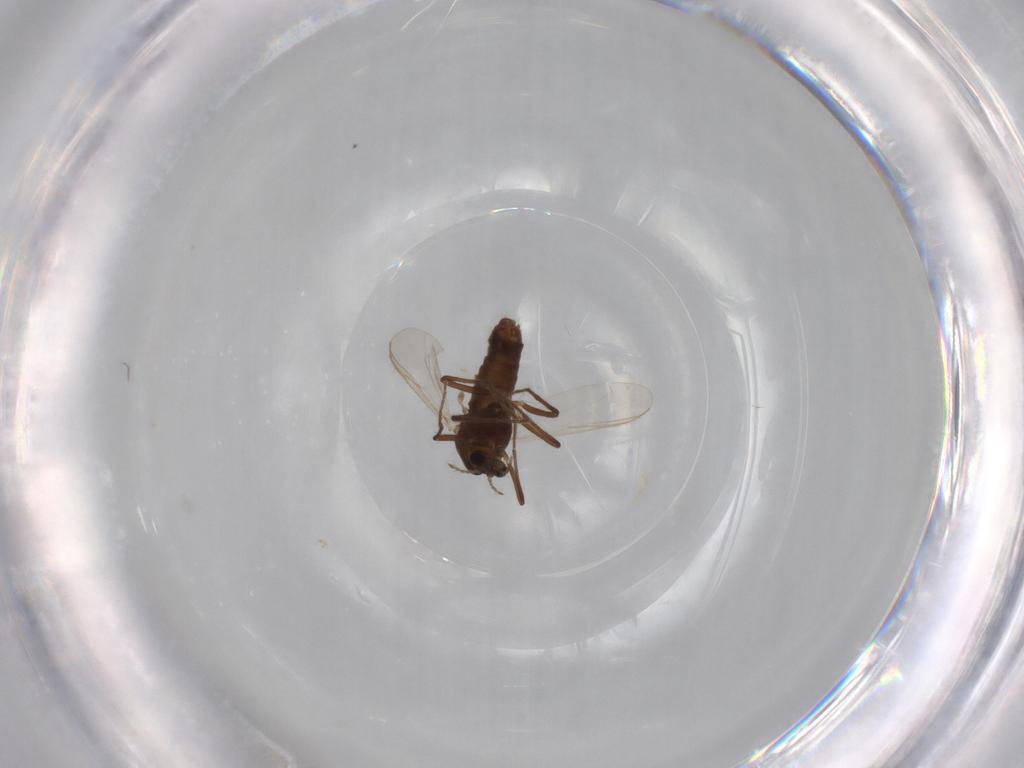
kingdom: Animalia
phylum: Arthropoda
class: Insecta
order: Diptera
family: Chironomidae
